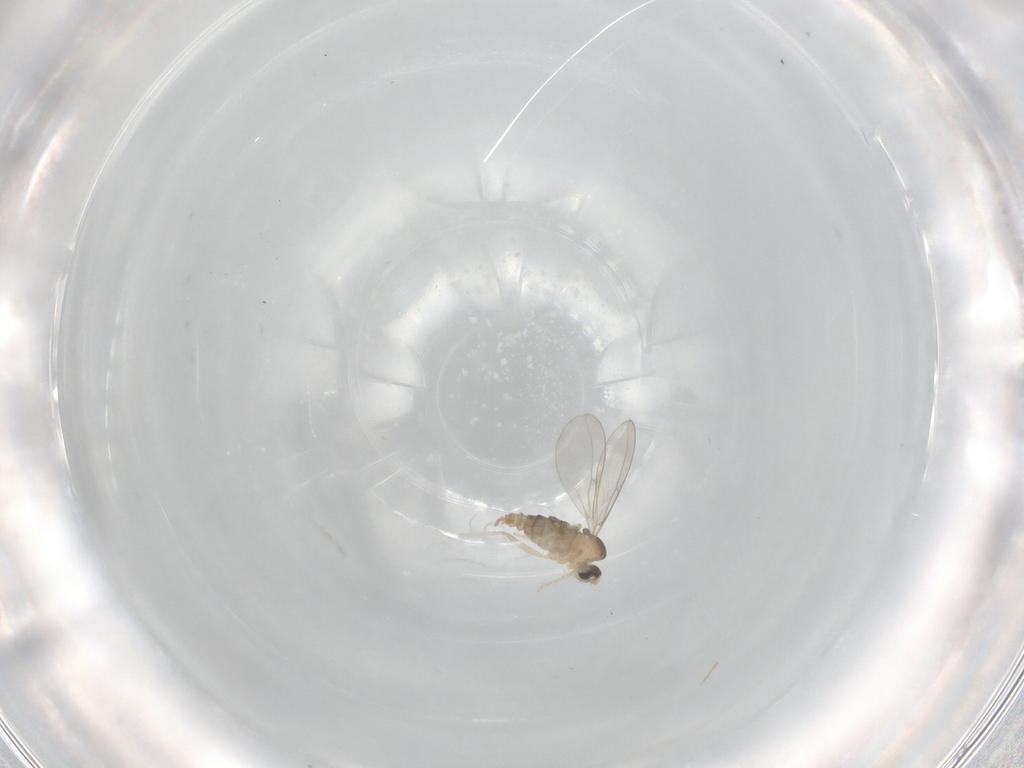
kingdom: Animalia
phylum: Arthropoda
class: Insecta
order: Diptera
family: Cecidomyiidae
